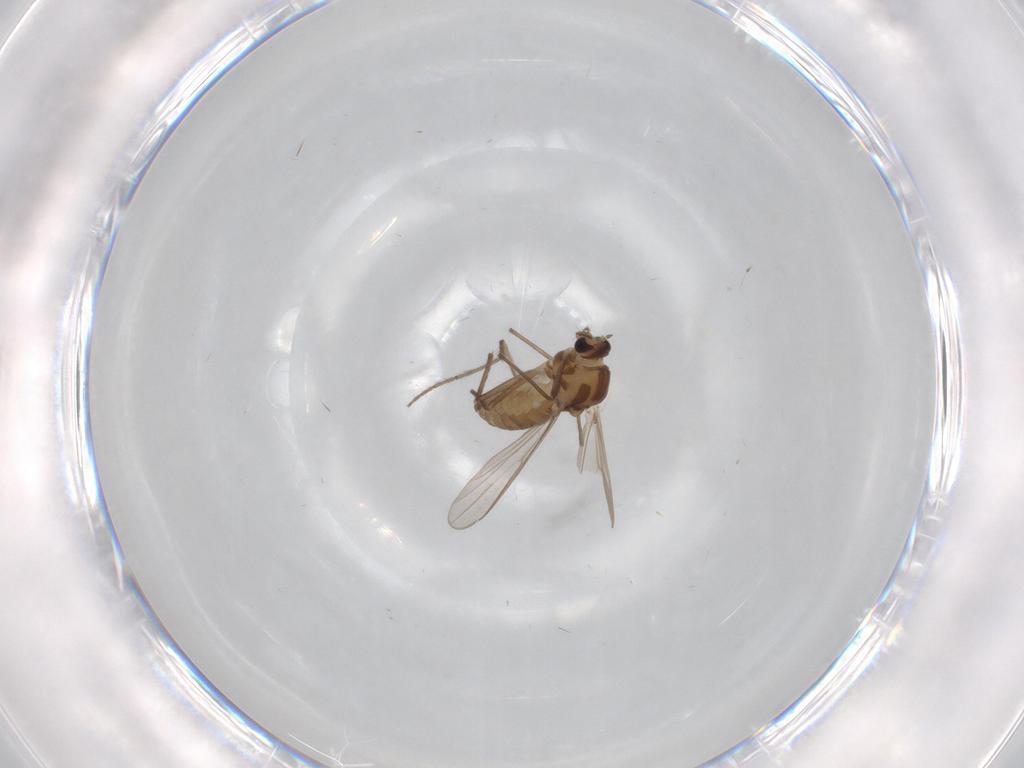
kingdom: Animalia
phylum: Arthropoda
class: Insecta
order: Diptera
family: Chironomidae
